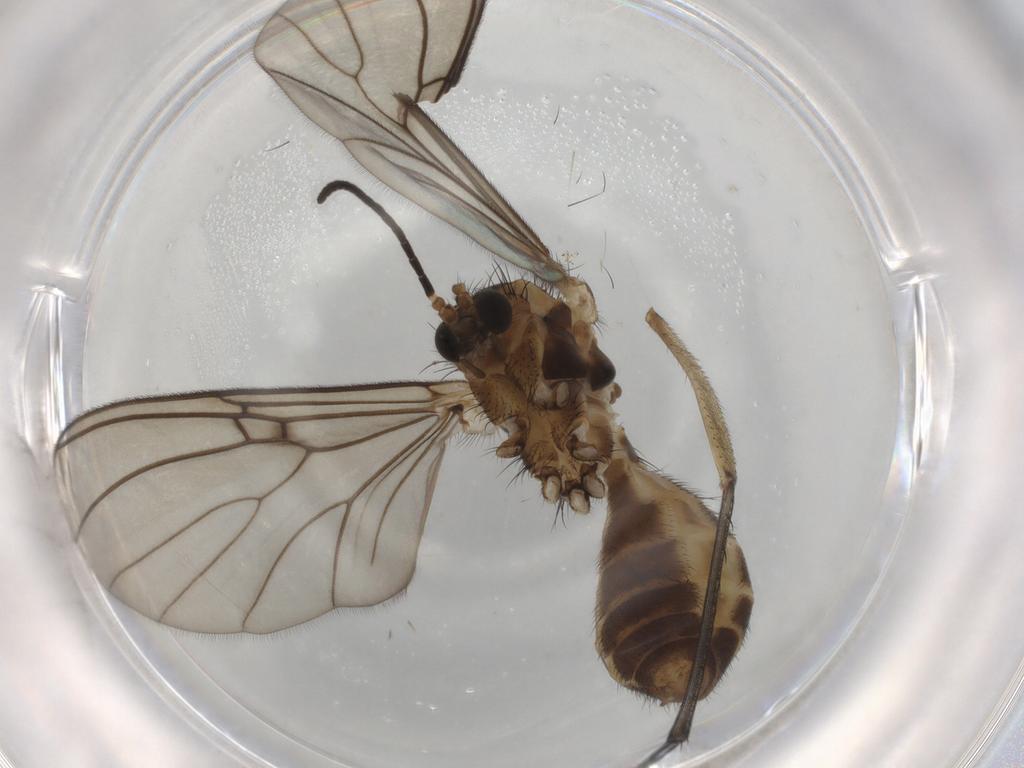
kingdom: Animalia
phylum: Arthropoda
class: Insecta
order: Diptera
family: Mycetophilidae
